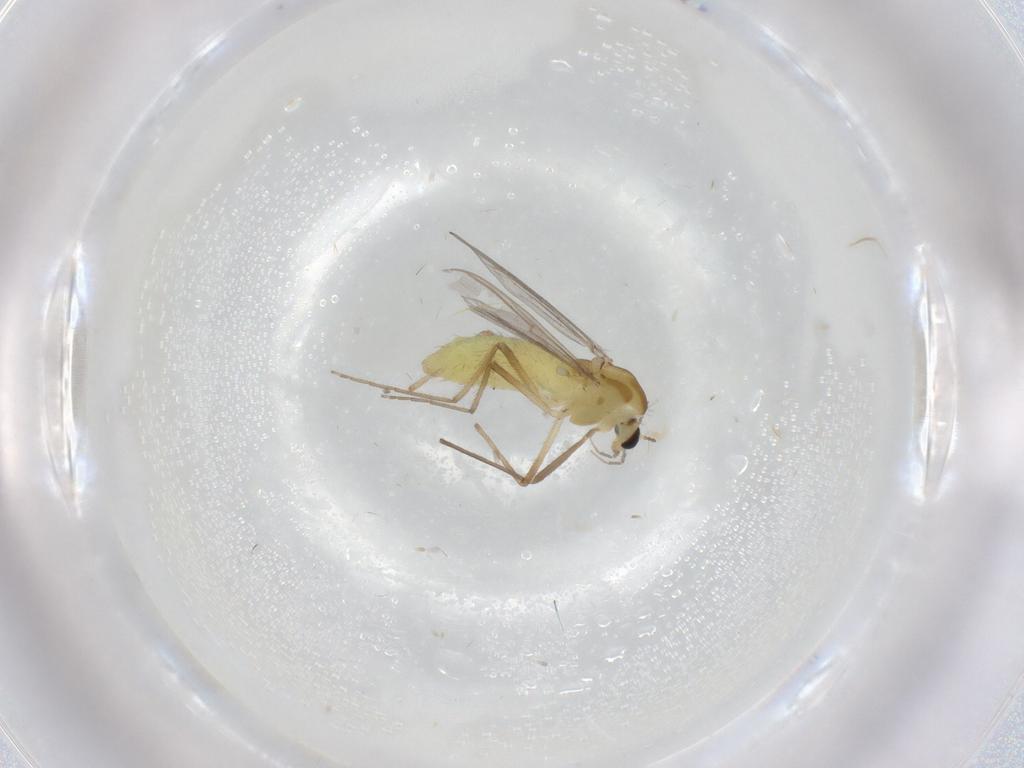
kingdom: Animalia
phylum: Arthropoda
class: Insecta
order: Diptera
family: Chironomidae
